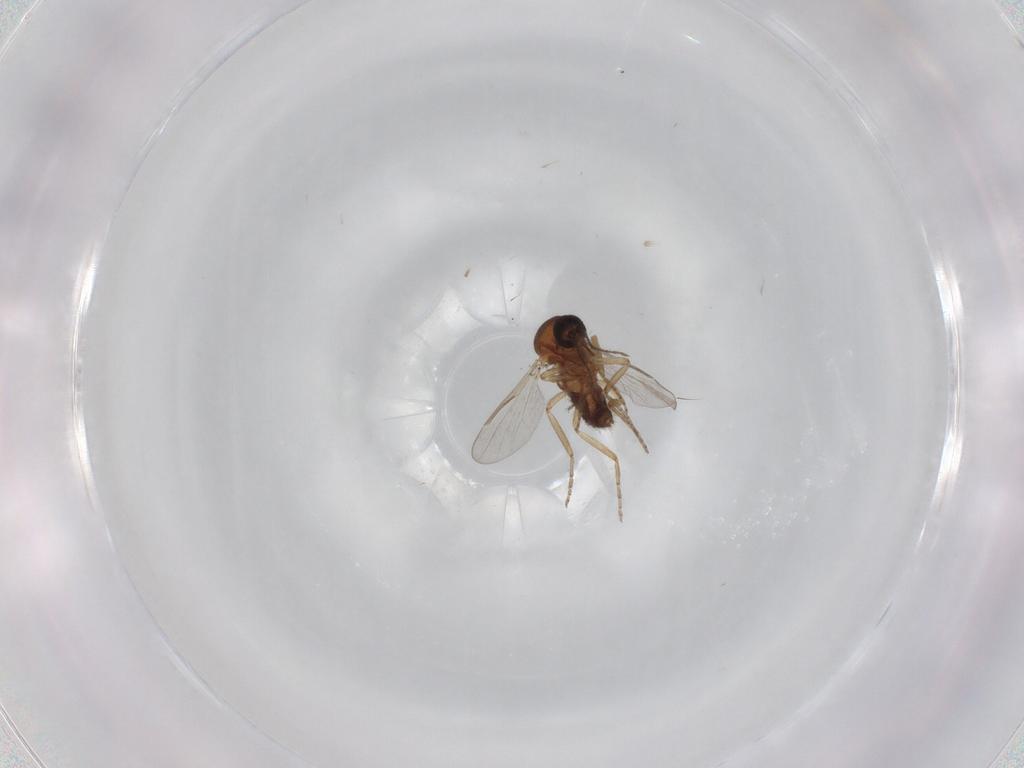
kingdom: Animalia
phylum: Arthropoda
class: Insecta
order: Diptera
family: Ceratopogonidae
